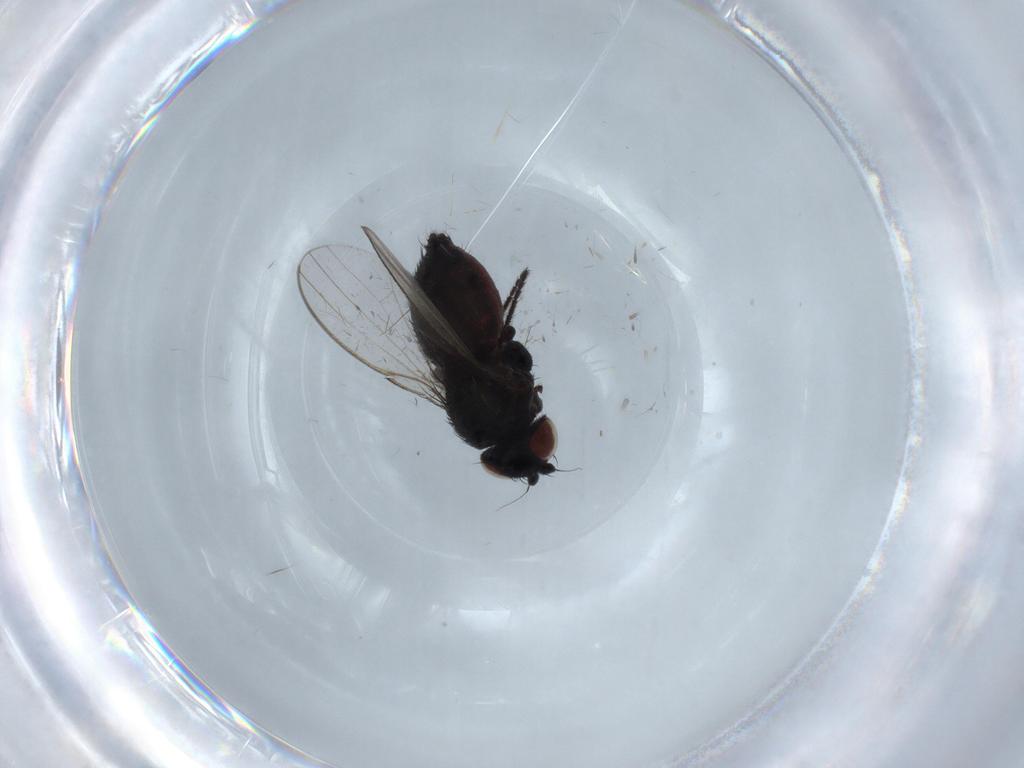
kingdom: Animalia
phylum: Arthropoda
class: Insecta
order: Diptera
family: Milichiidae
